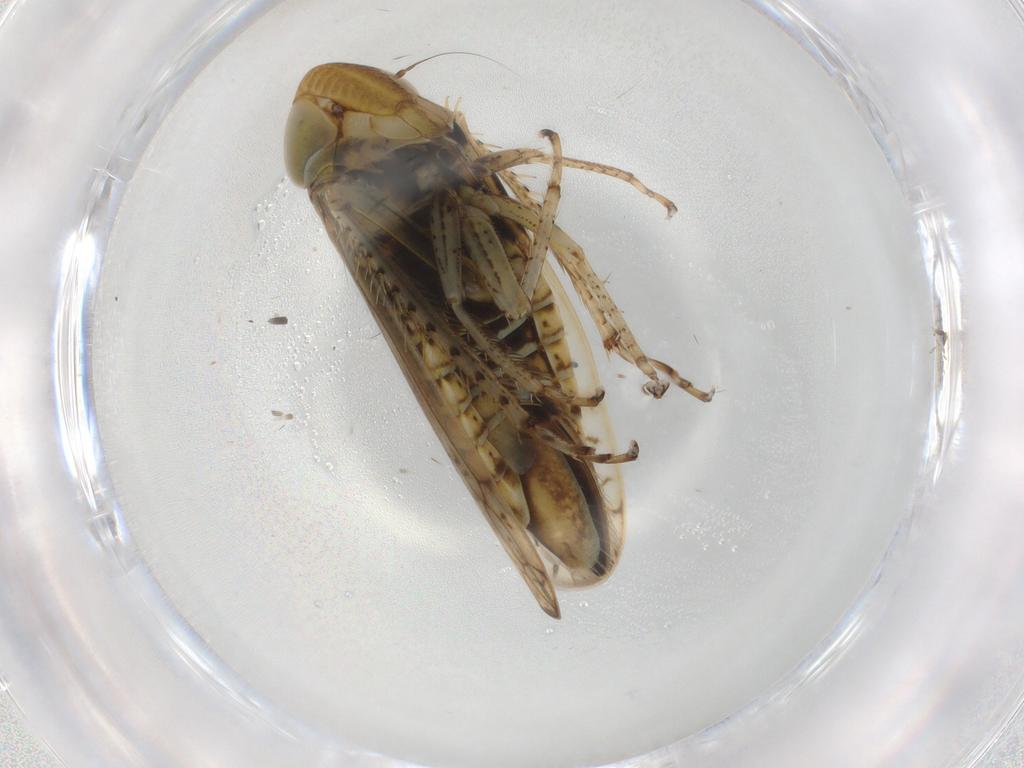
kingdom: Animalia
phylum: Arthropoda
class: Insecta
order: Hemiptera
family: Cicadellidae
